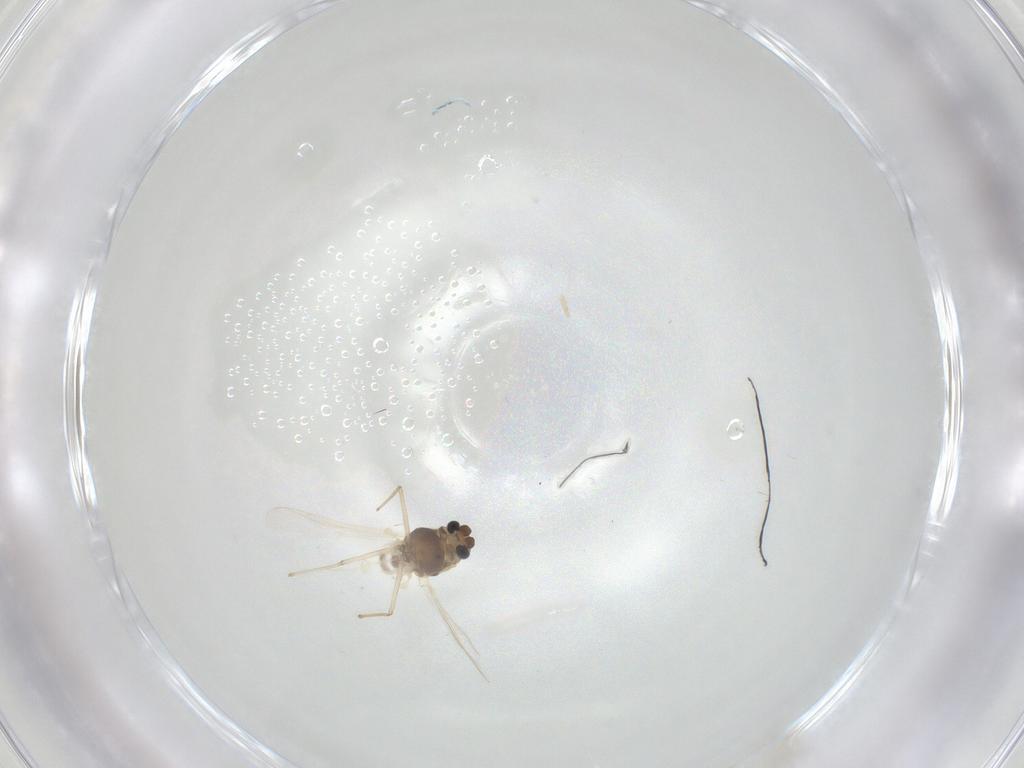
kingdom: Animalia
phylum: Arthropoda
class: Insecta
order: Diptera
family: Chironomidae
